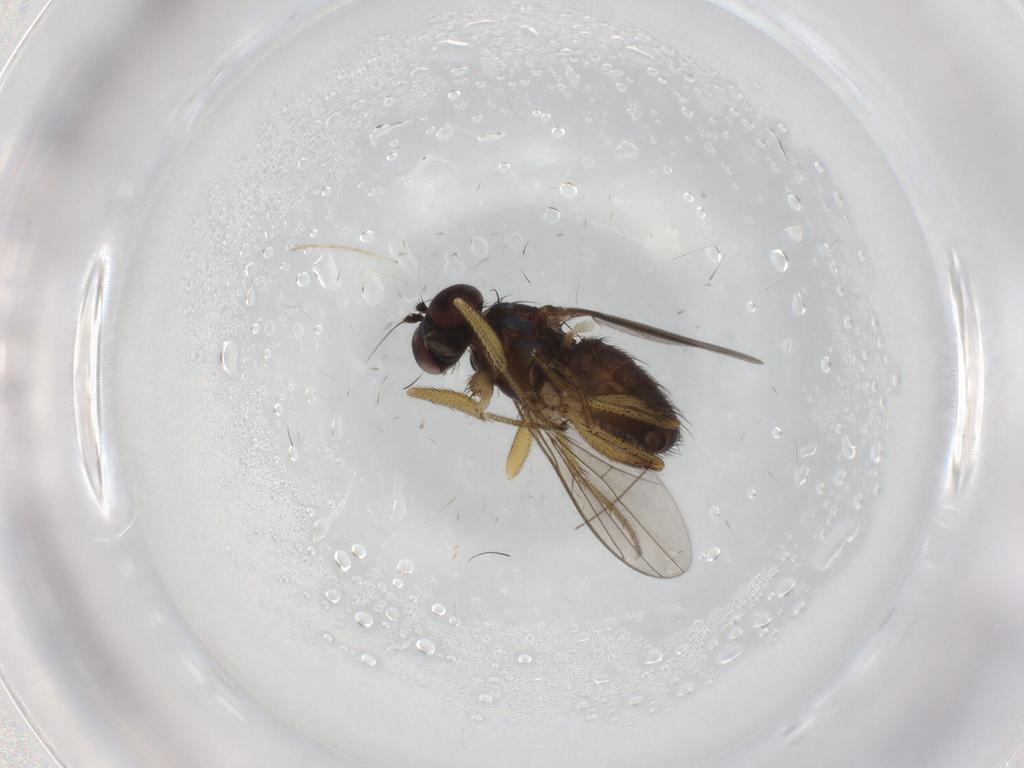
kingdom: Animalia
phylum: Arthropoda
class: Insecta
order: Diptera
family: Dolichopodidae
